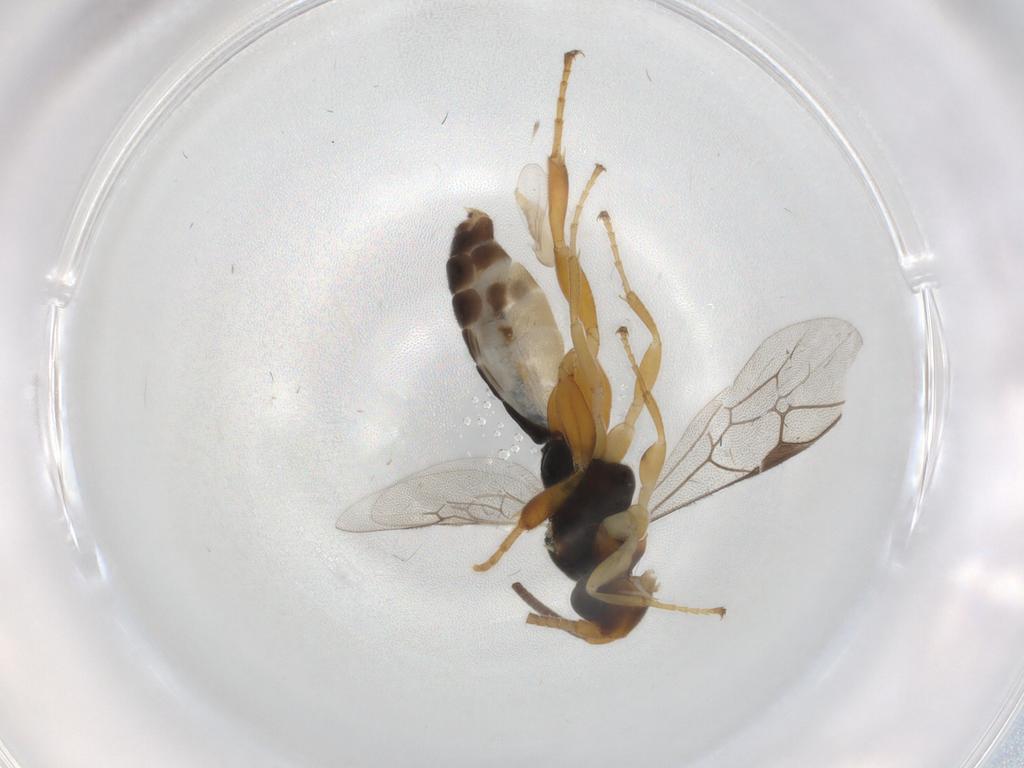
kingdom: Animalia
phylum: Arthropoda
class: Insecta
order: Hymenoptera
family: Ichneumonidae
